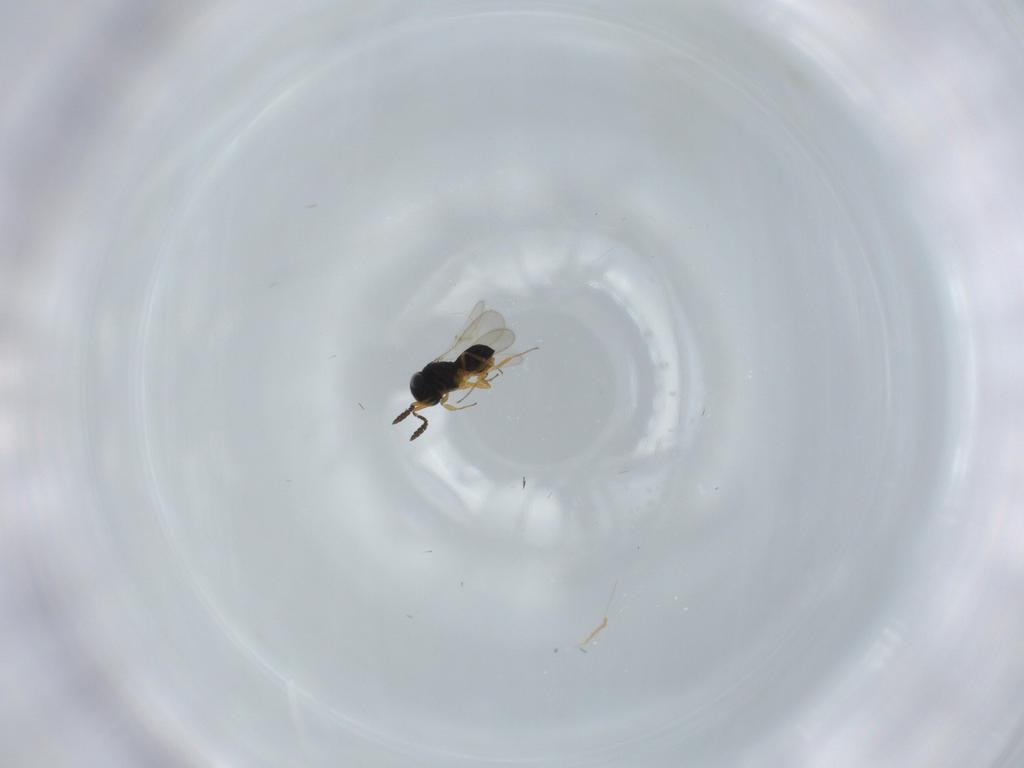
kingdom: Animalia
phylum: Arthropoda
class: Insecta
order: Hymenoptera
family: Scelionidae
